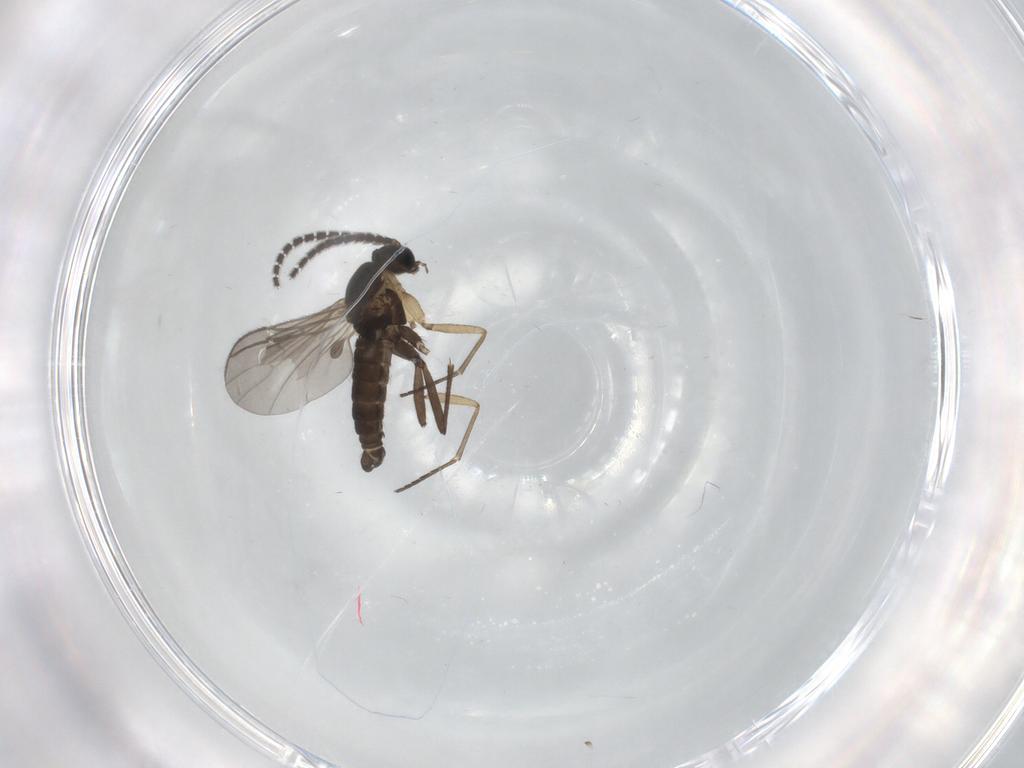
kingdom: Animalia
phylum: Arthropoda
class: Insecta
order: Diptera
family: Sciaridae
